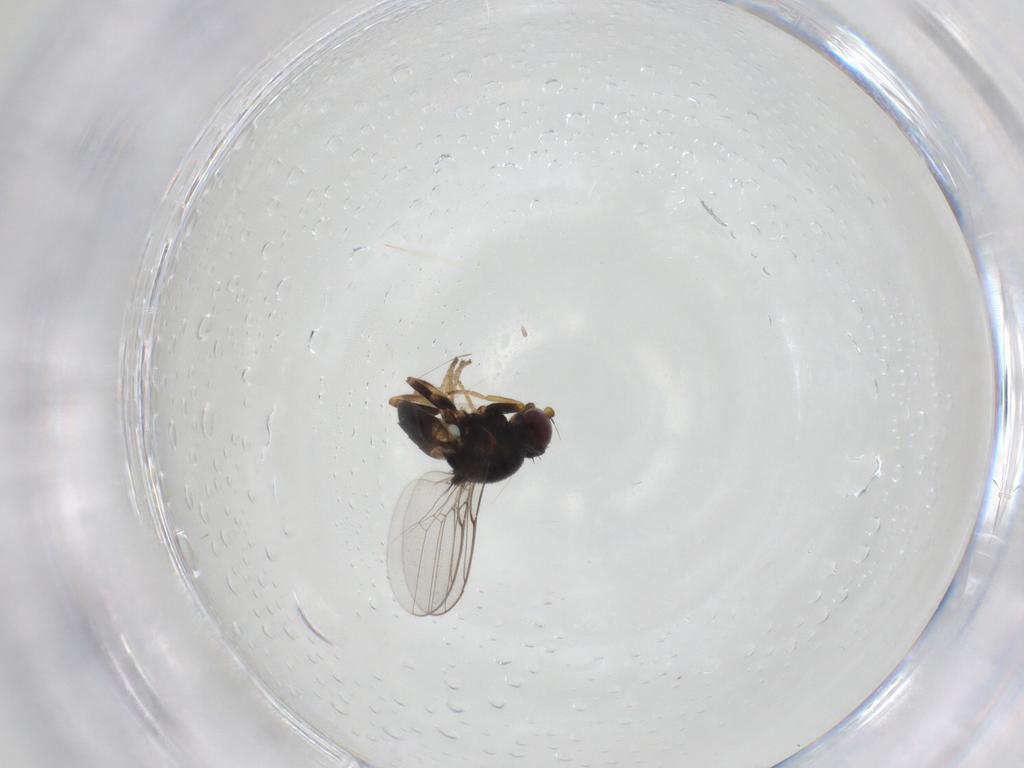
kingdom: Animalia
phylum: Arthropoda
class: Insecta
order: Diptera
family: Chloropidae
